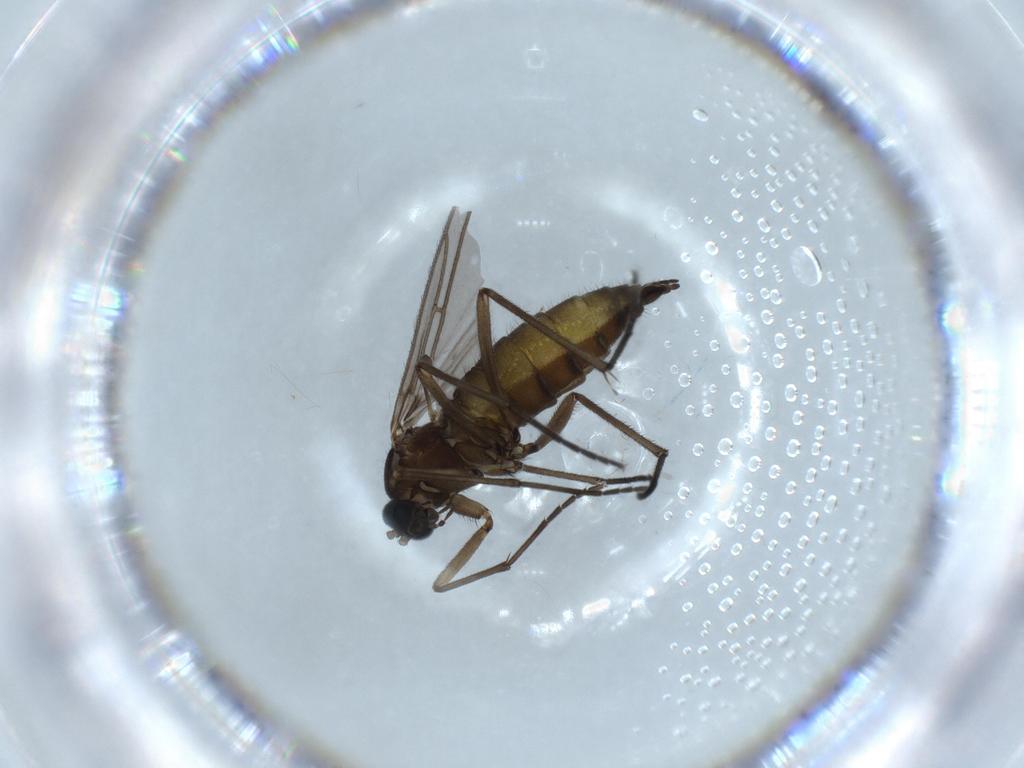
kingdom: Animalia
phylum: Arthropoda
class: Insecta
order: Diptera
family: Sciaridae
